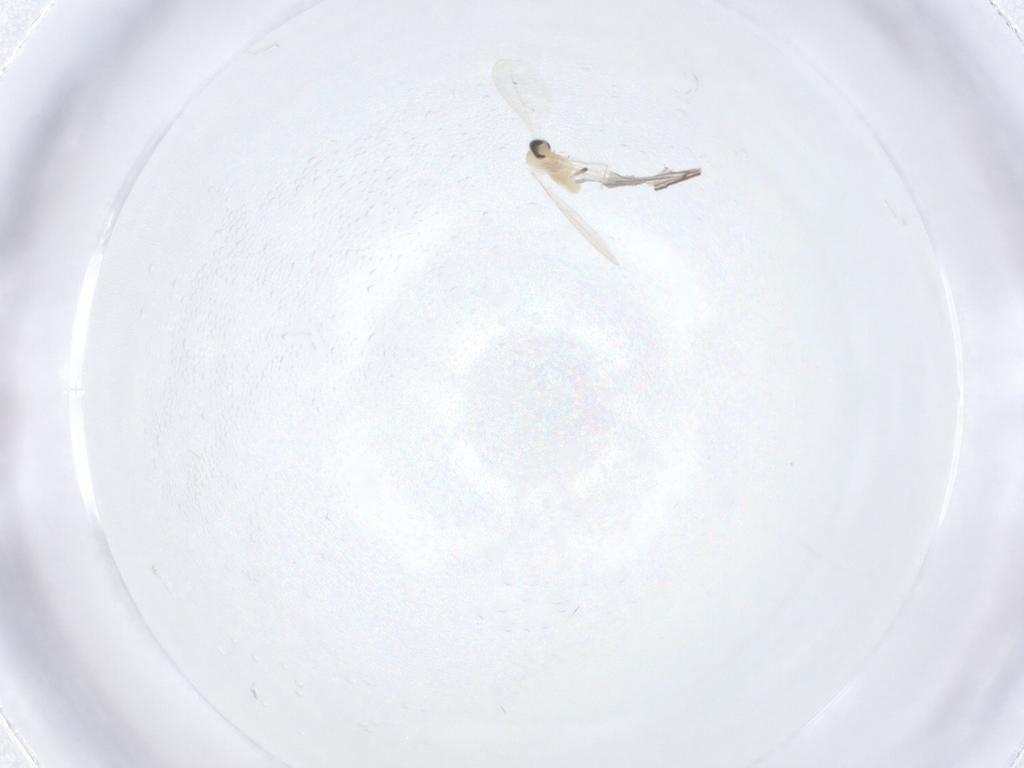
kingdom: Animalia
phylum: Arthropoda
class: Insecta
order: Diptera
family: Cecidomyiidae
